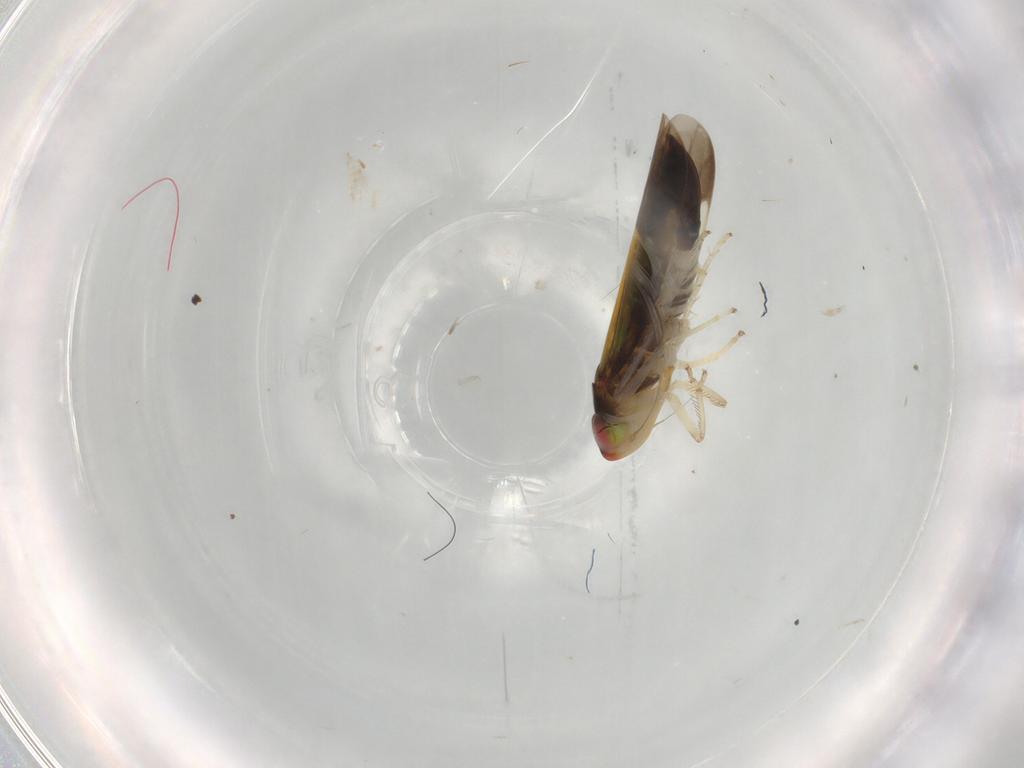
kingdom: Animalia
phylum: Arthropoda
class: Insecta
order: Hemiptera
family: Cicadellidae
